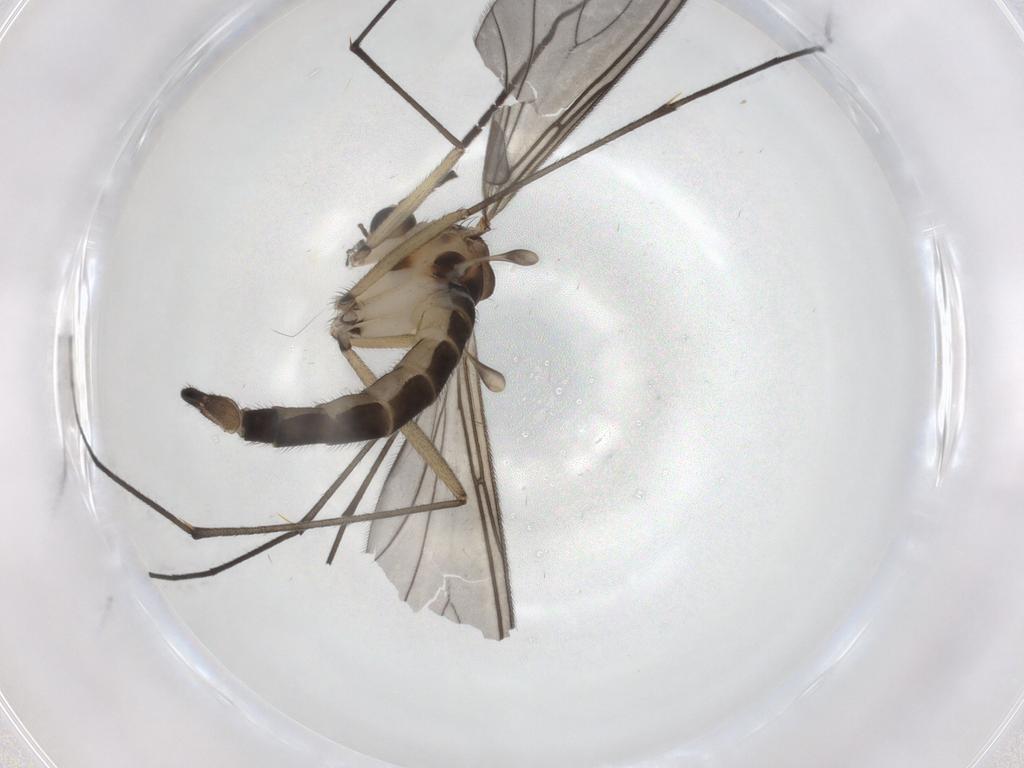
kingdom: Animalia
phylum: Arthropoda
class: Insecta
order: Diptera
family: Sciaridae
